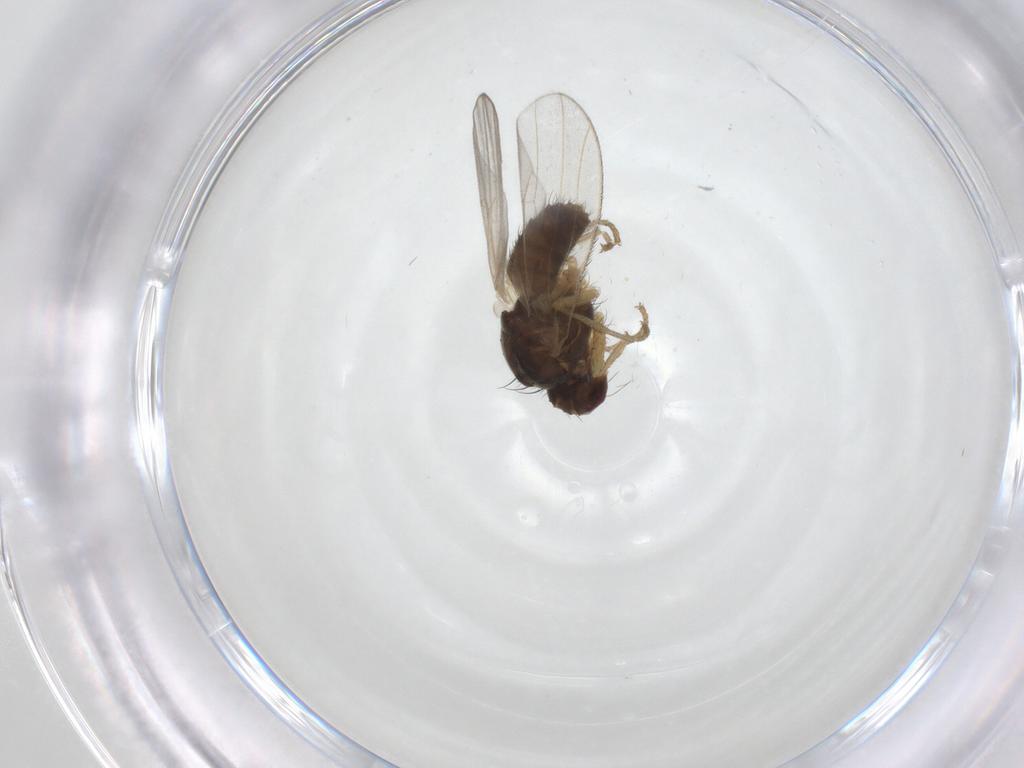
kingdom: Animalia
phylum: Arthropoda
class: Insecta
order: Diptera
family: Heleomyzidae
